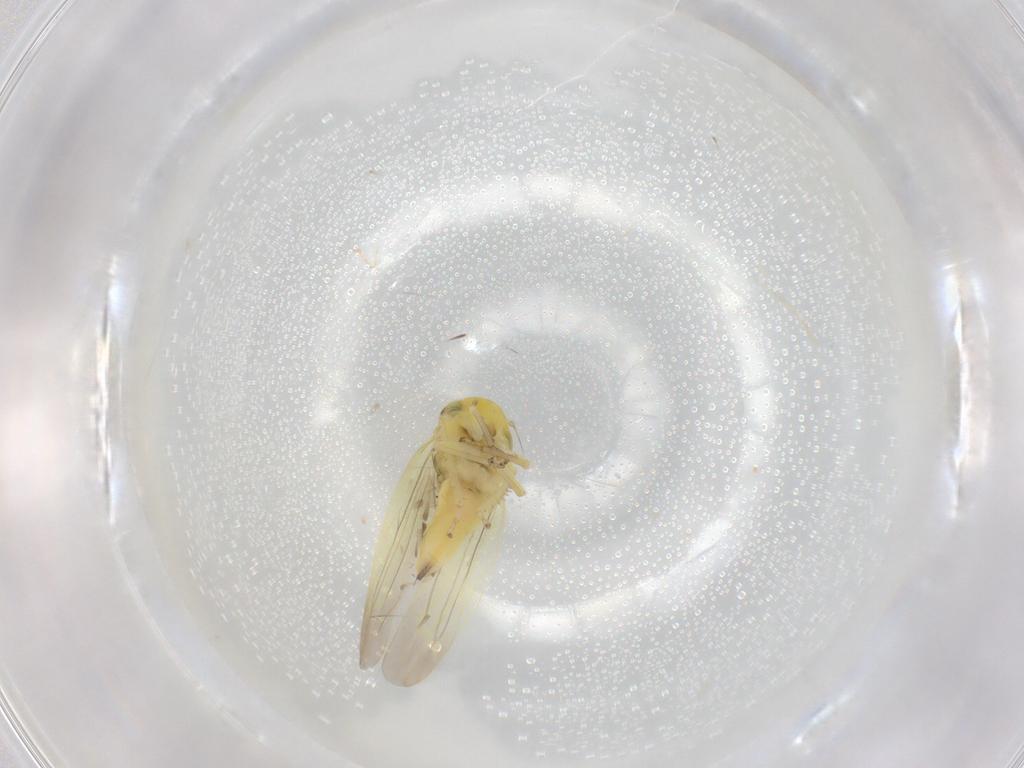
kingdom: Animalia
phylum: Arthropoda
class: Insecta
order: Hemiptera
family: Cicadellidae
